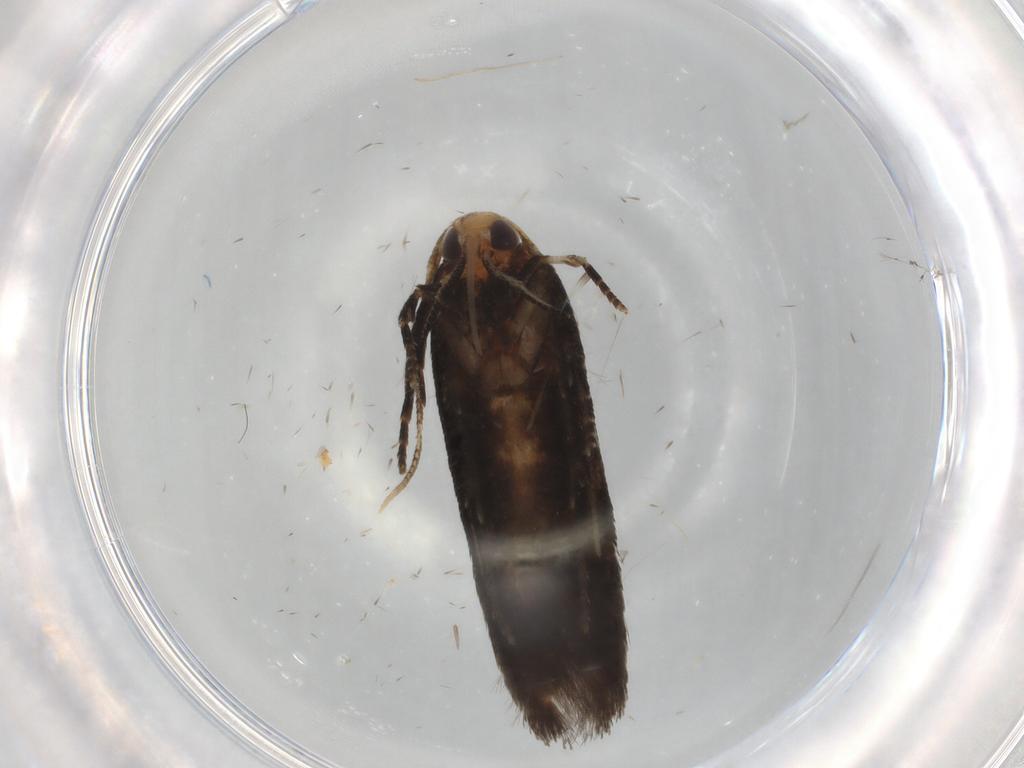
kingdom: Animalia
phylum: Arthropoda
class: Insecta
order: Lepidoptera
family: Cosmopterigidae
